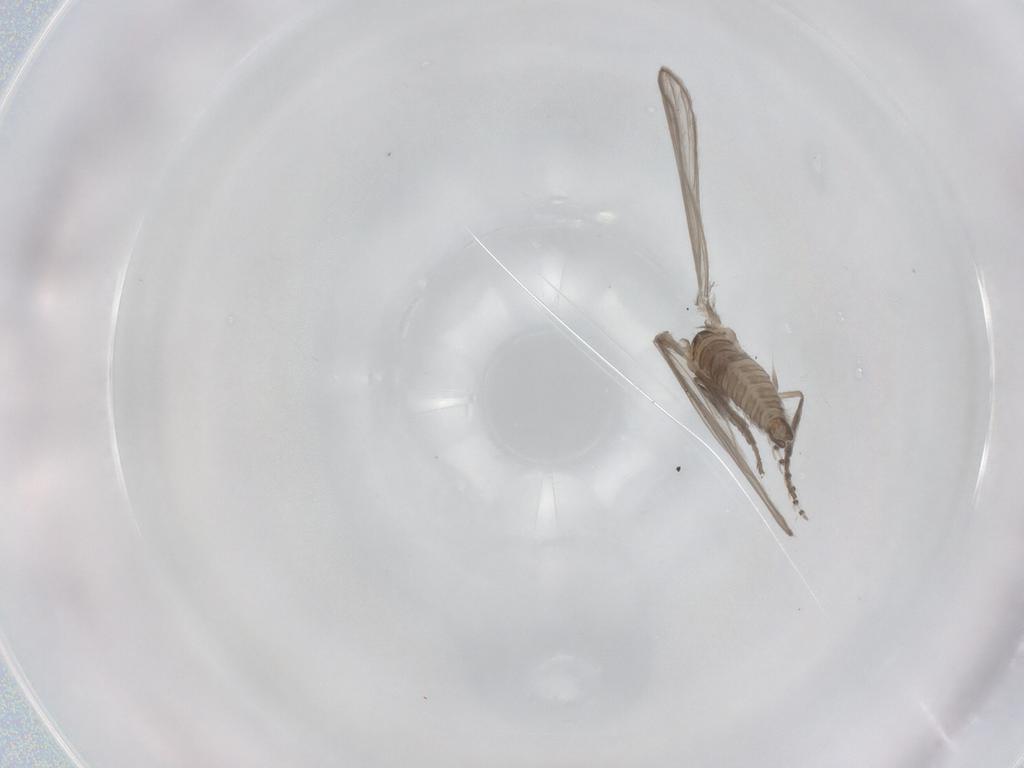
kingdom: Animalia
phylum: Arthropoda
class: Insecta
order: Diptera
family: Psychodidae
